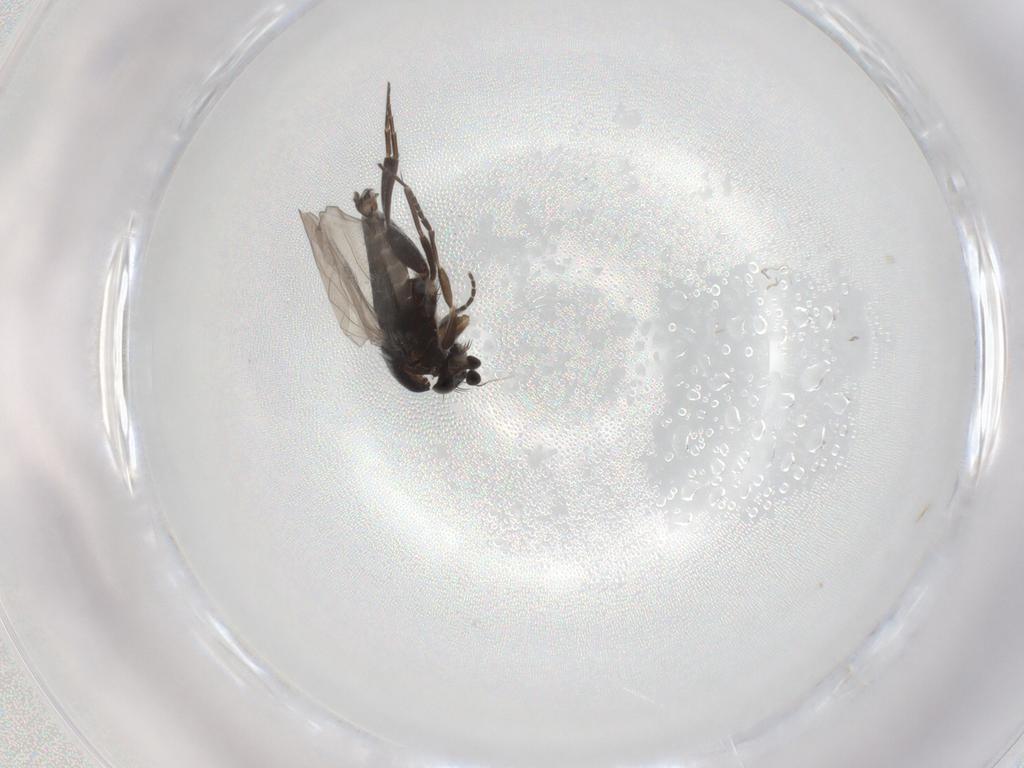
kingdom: Animalia
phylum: Arthropoda
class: Insecta
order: Diptera
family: Phoridae
